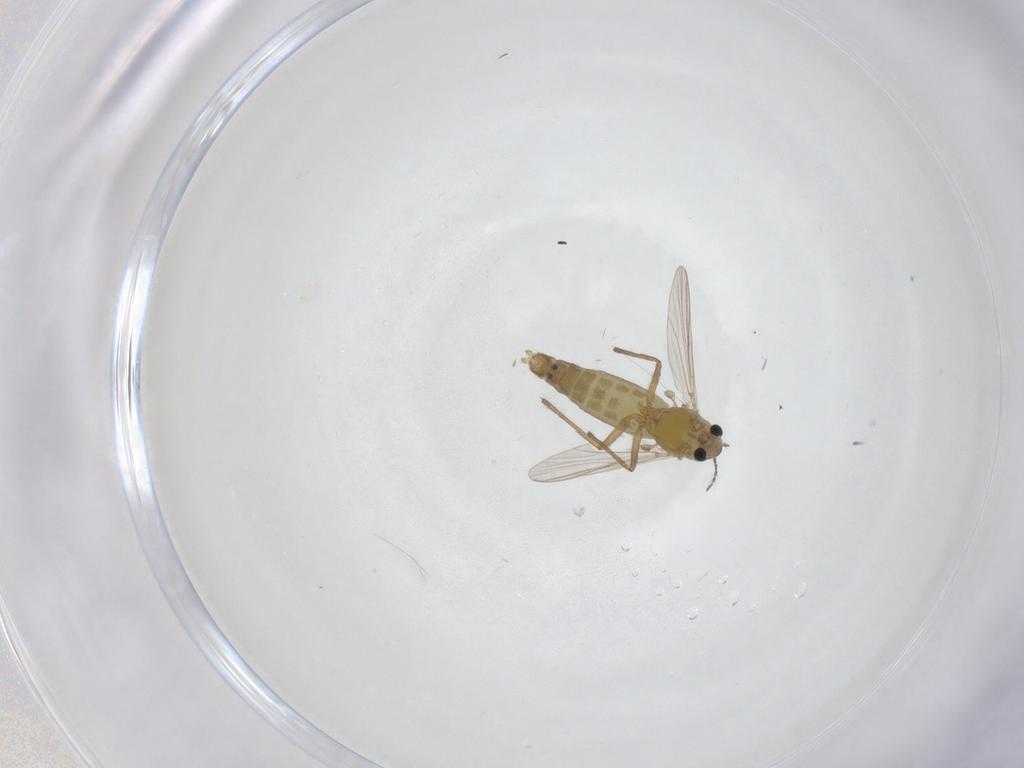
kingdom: Animalia
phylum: Arthropoda
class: Insecta
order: Diptera
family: Chironomidae
